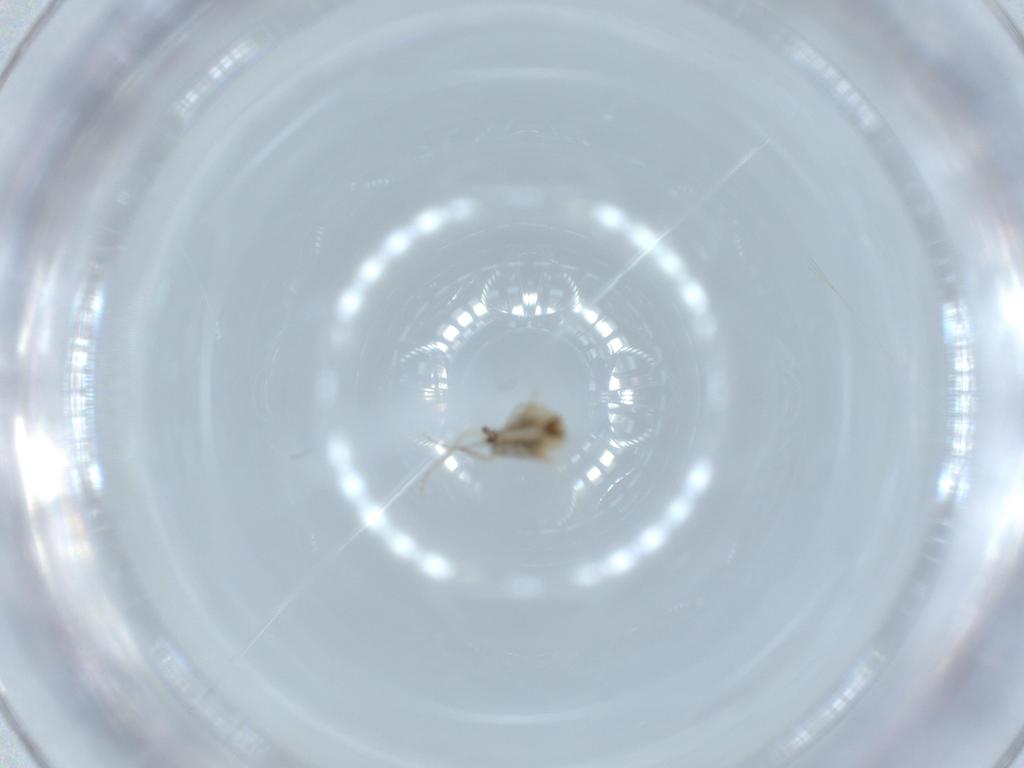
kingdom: Animalia
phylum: Arthropoda
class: Insecta
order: Diptera
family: Ceratopogonidae
